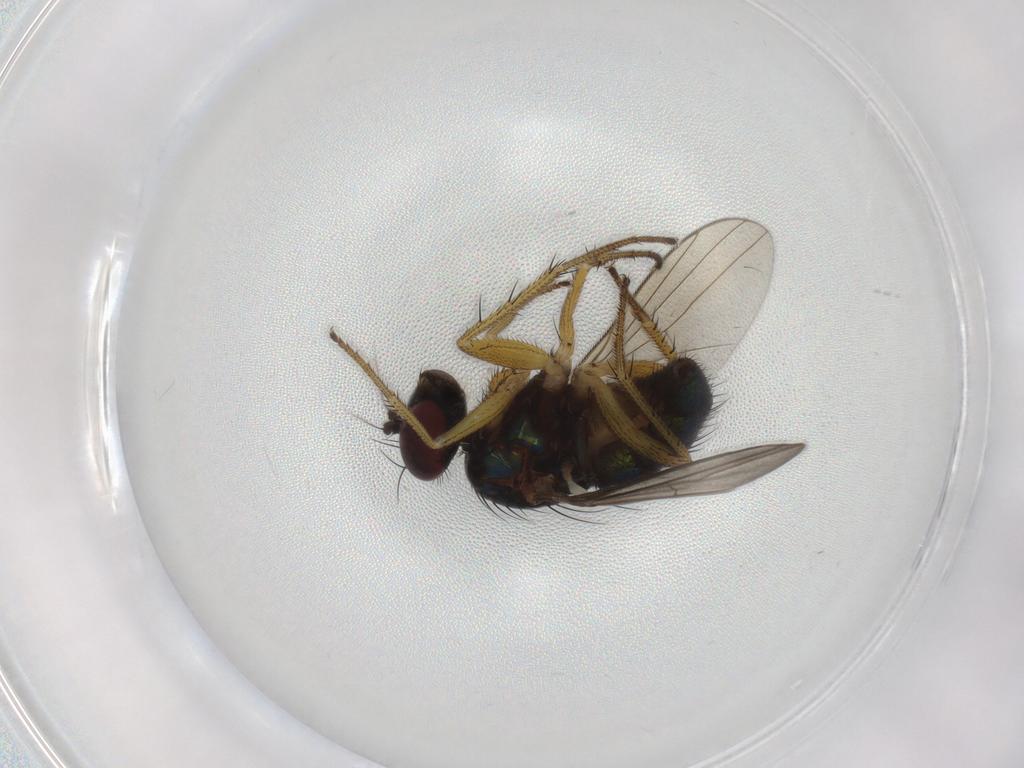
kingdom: Animalia
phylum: Arthropoda
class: Insecta
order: Diptera
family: Dolichopodidae
